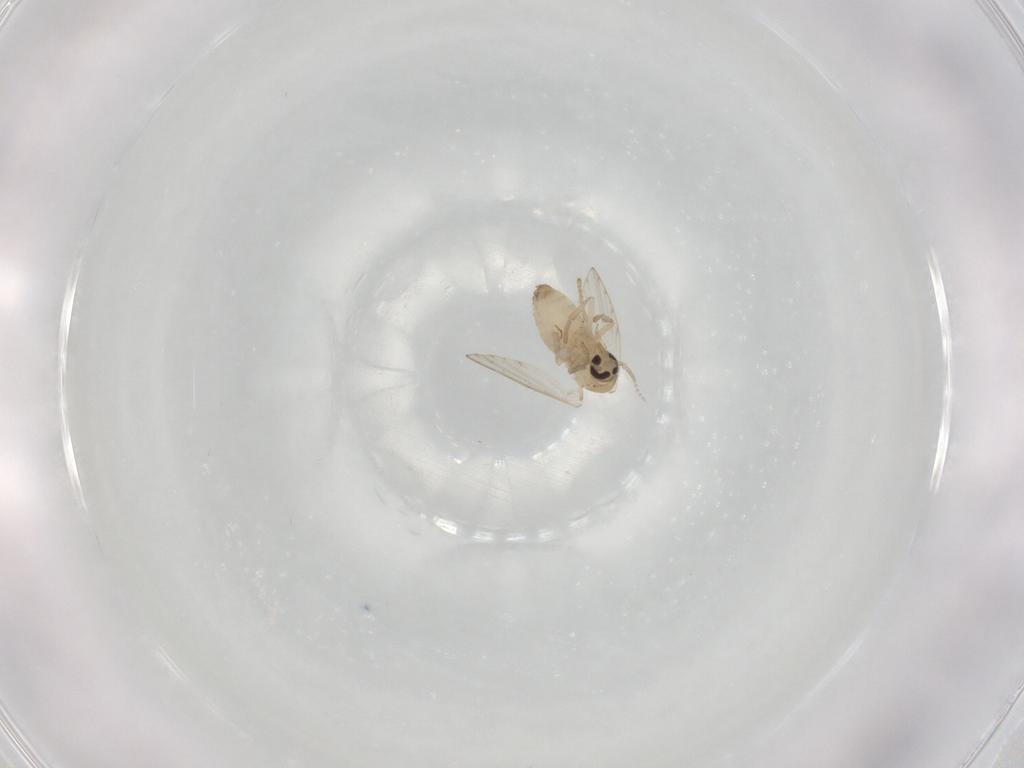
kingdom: Animalia
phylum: Arthropoda
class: Insecta
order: Diptera
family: Psychodidae
